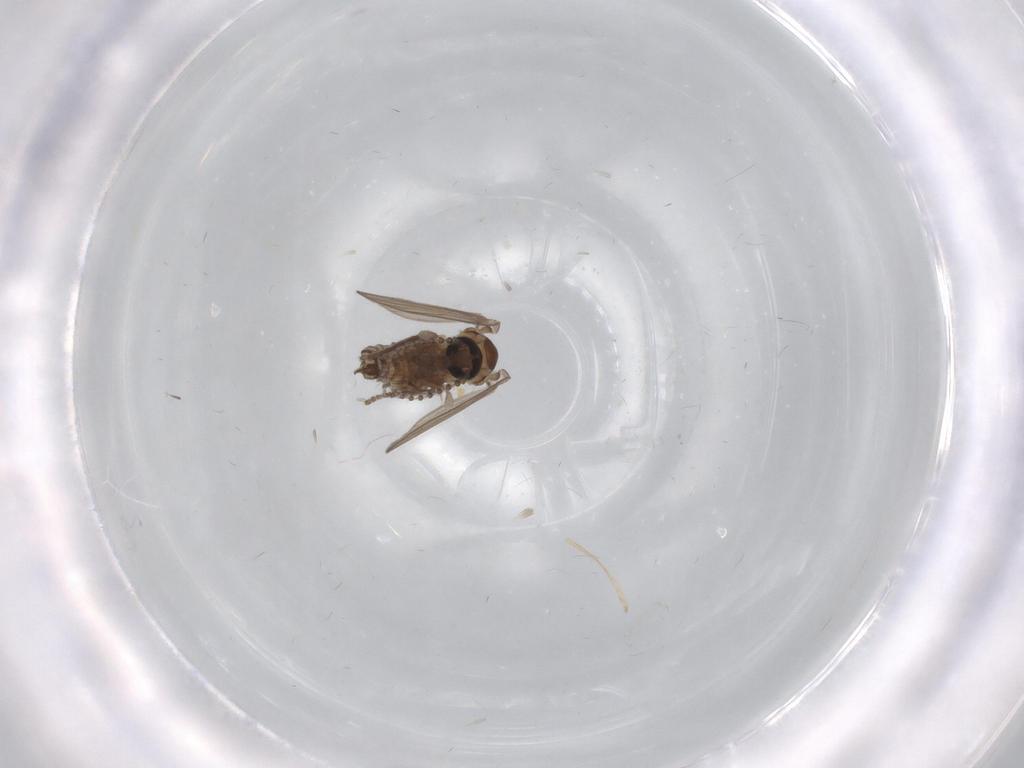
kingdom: Animalia
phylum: Arthropoda
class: Insecta
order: Diptera
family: Psychodidae
